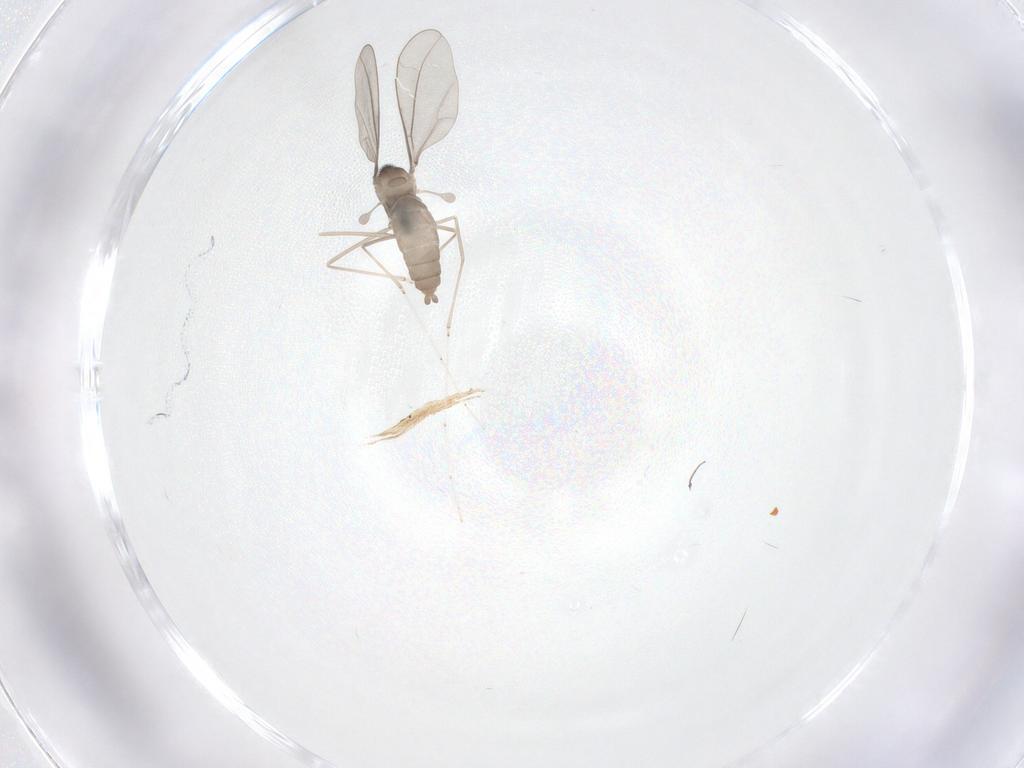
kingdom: Animalia
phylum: Arthropoda
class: Insecta
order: Diptera
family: Cecidomyiidae
